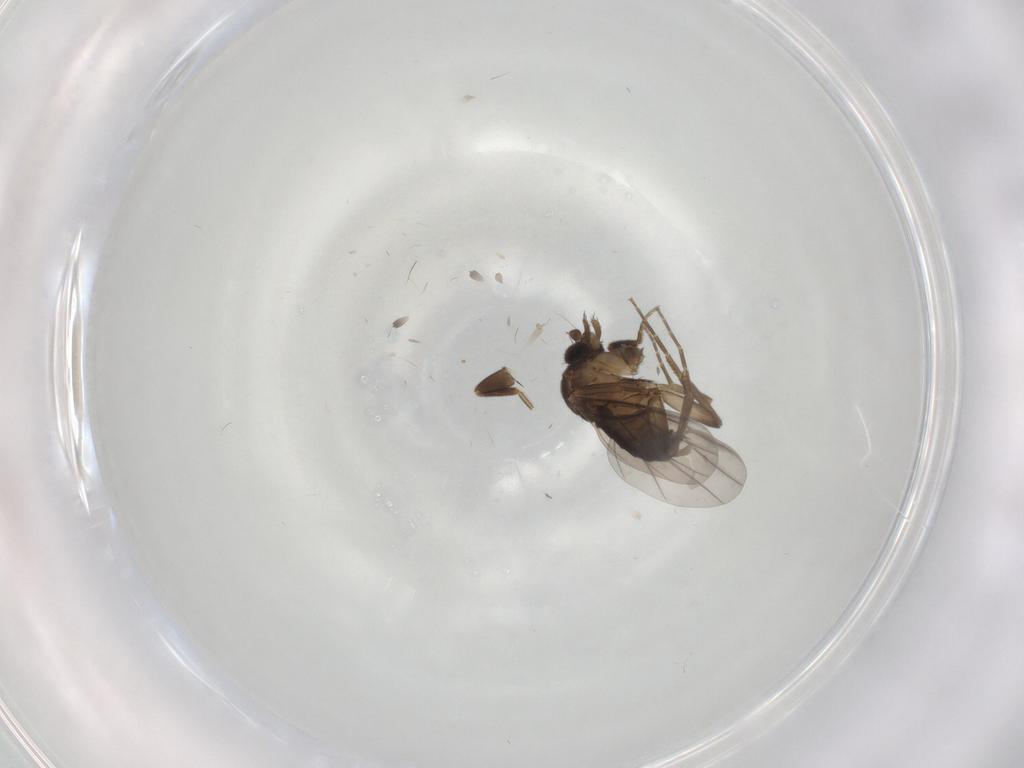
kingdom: Animalia
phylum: Arthropoda
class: Insecta
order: Diptera
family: Phoridae
